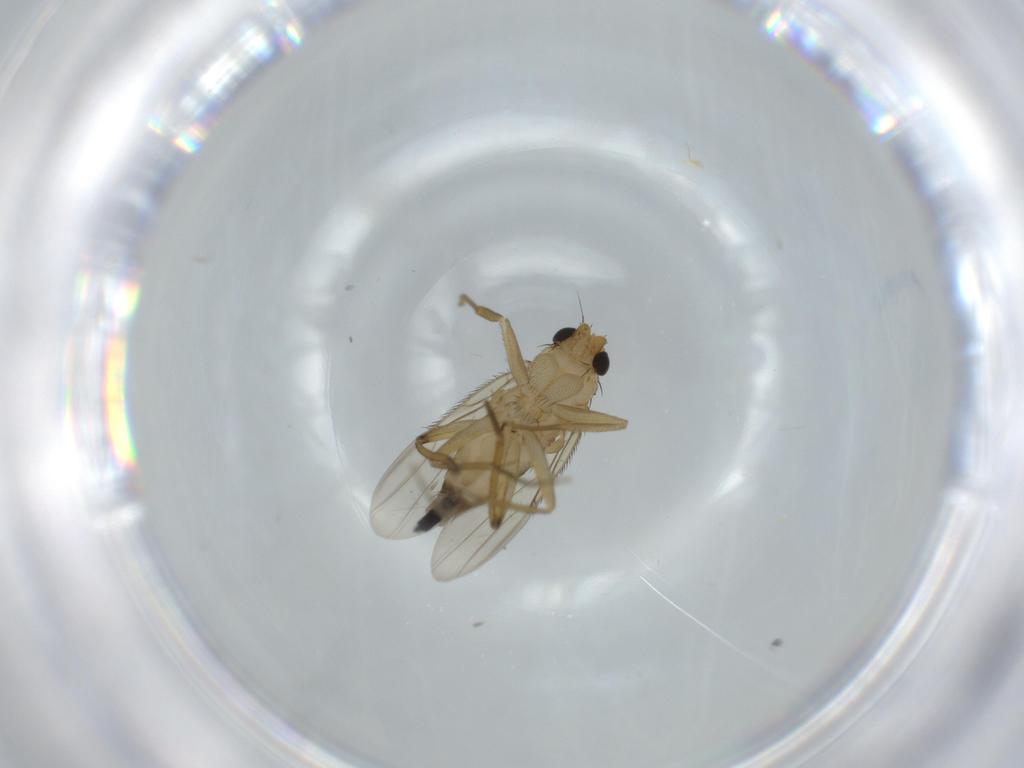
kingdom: Animalia
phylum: Arthropoda
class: Insecta
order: Diptera
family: Phoridae
